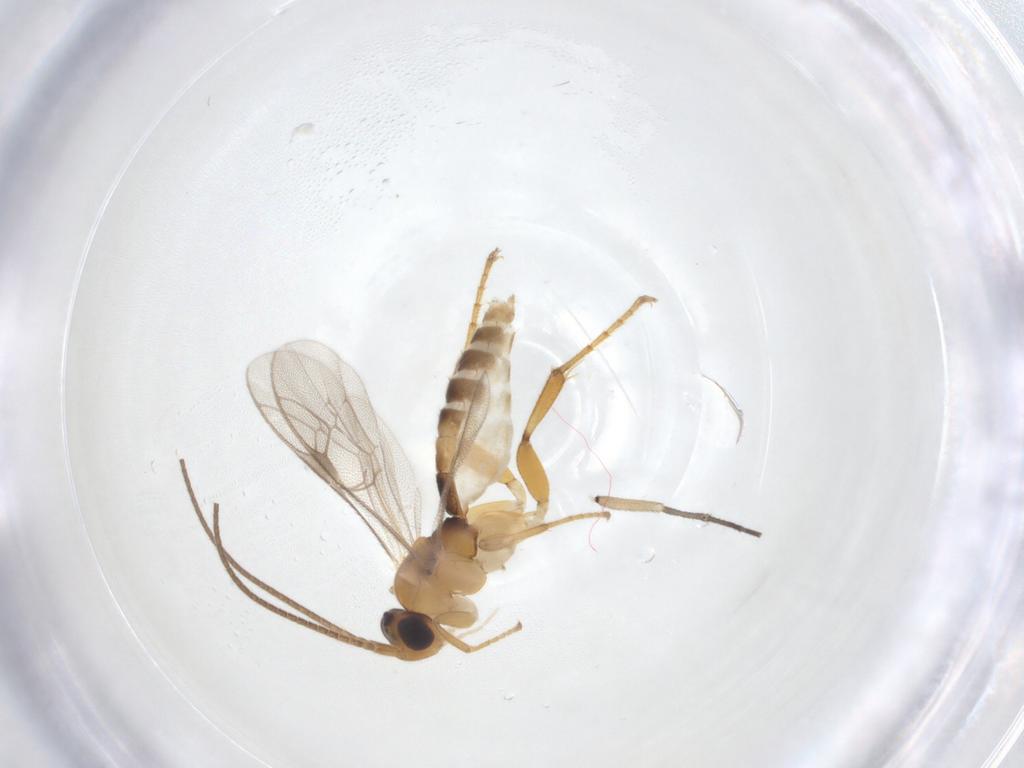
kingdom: Animalia
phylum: Arthropoda
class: Insecta
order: Hymenoptera
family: Ichneumonidae
